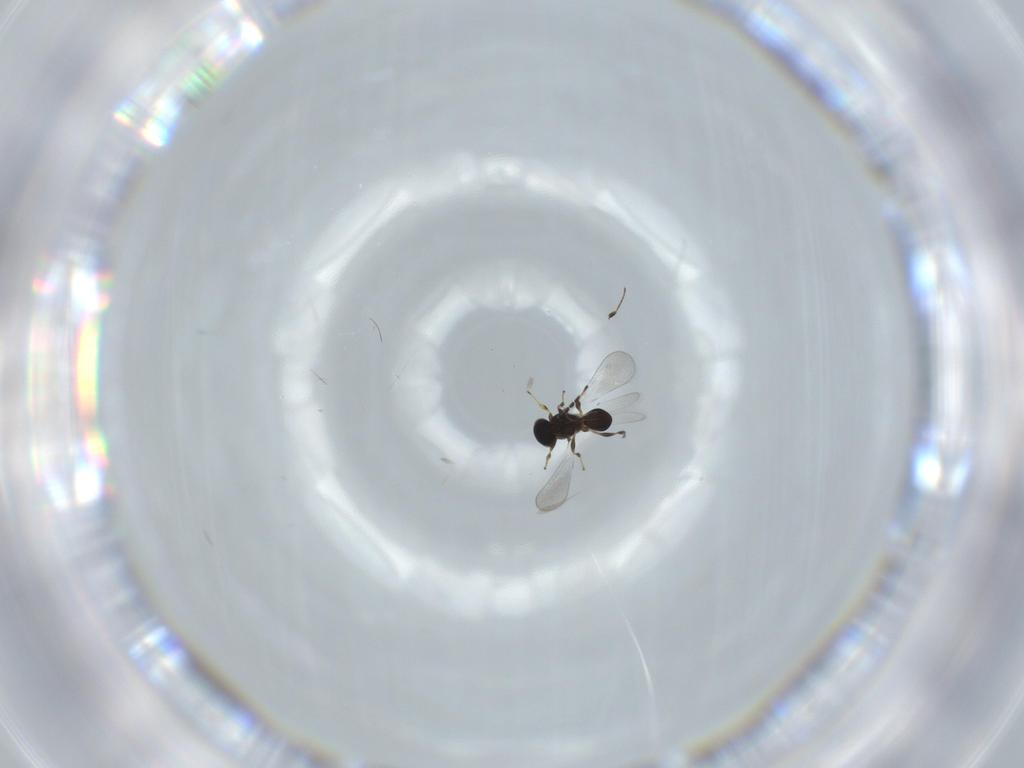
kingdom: Animalia
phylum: Arthropoda
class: Insecta
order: Hymenoptera
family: Platygastridae
